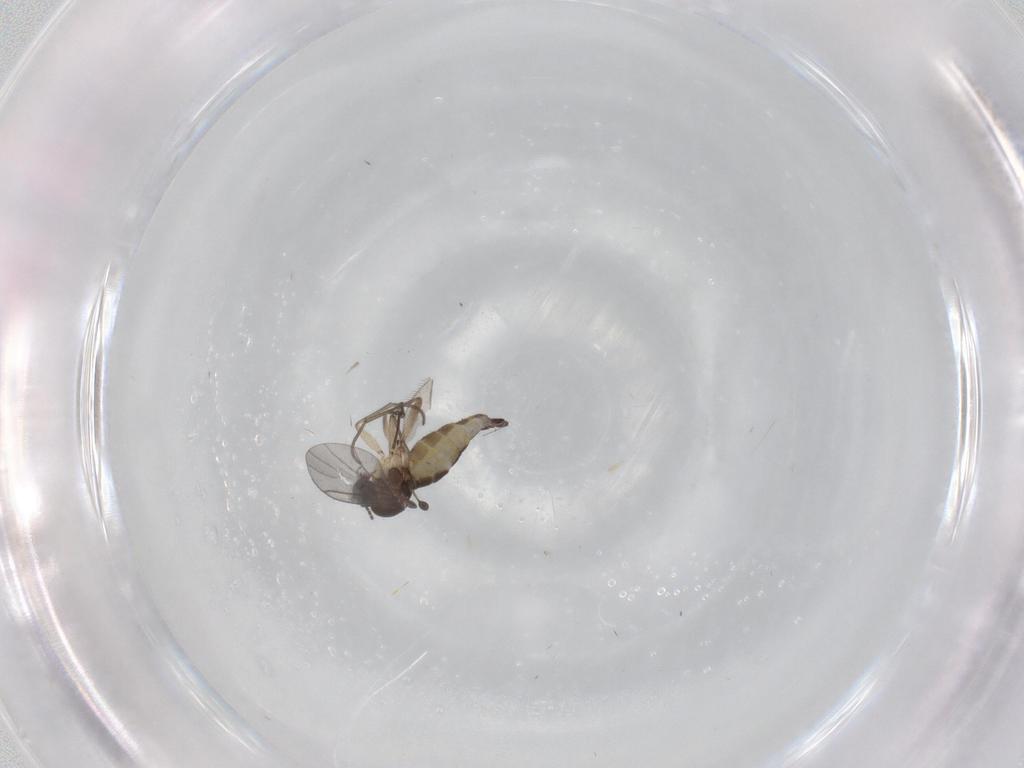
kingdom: Animalia
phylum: Arthropoda
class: Insecta
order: Diptera
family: Sciaridae
